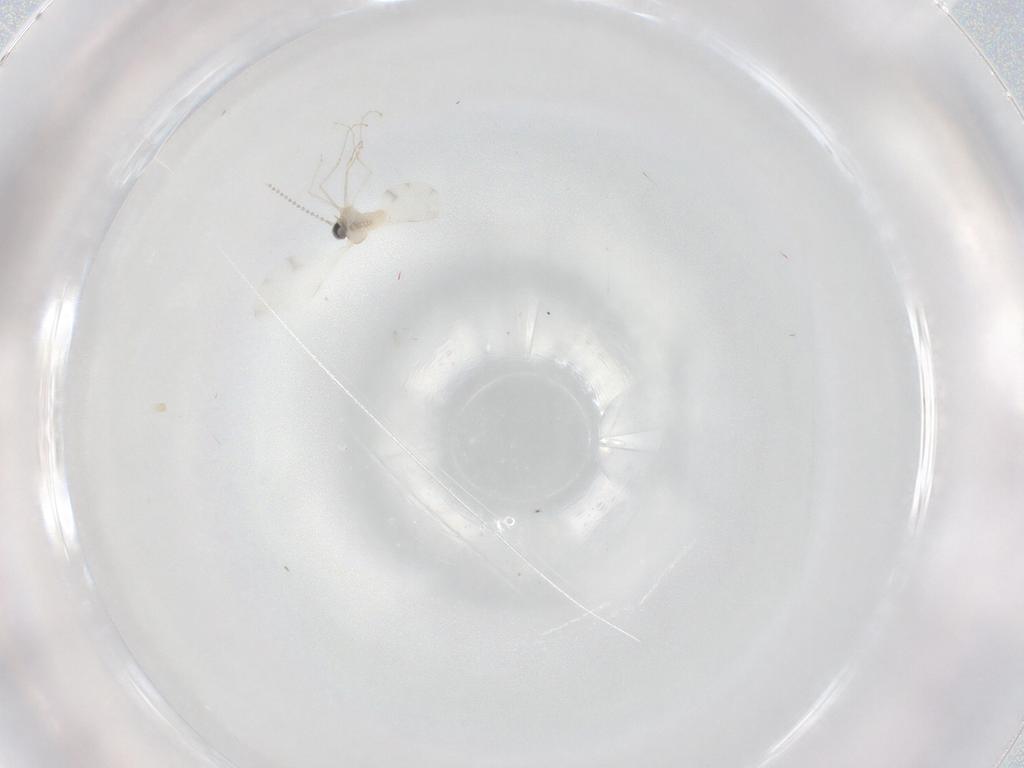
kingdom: Animalia
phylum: Arthropoda
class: Insecta
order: Diptera
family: Cecidomyiidae
